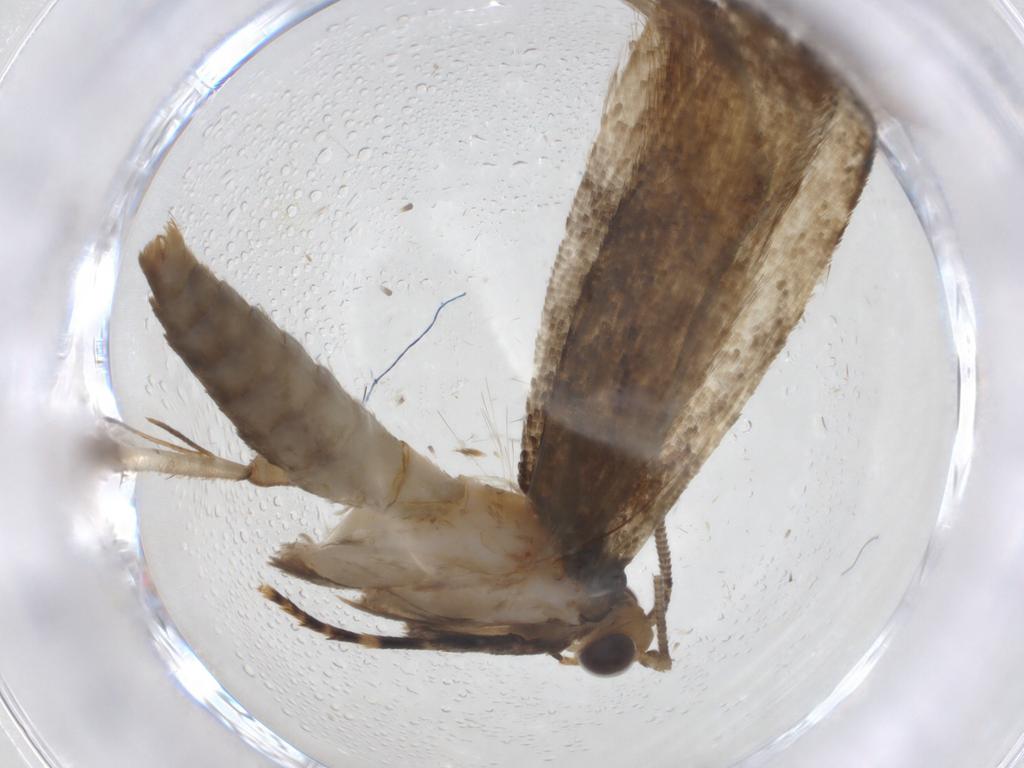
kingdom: Animalia
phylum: Arthropoda
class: Insecta
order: Lepidoptera
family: Tineidae
